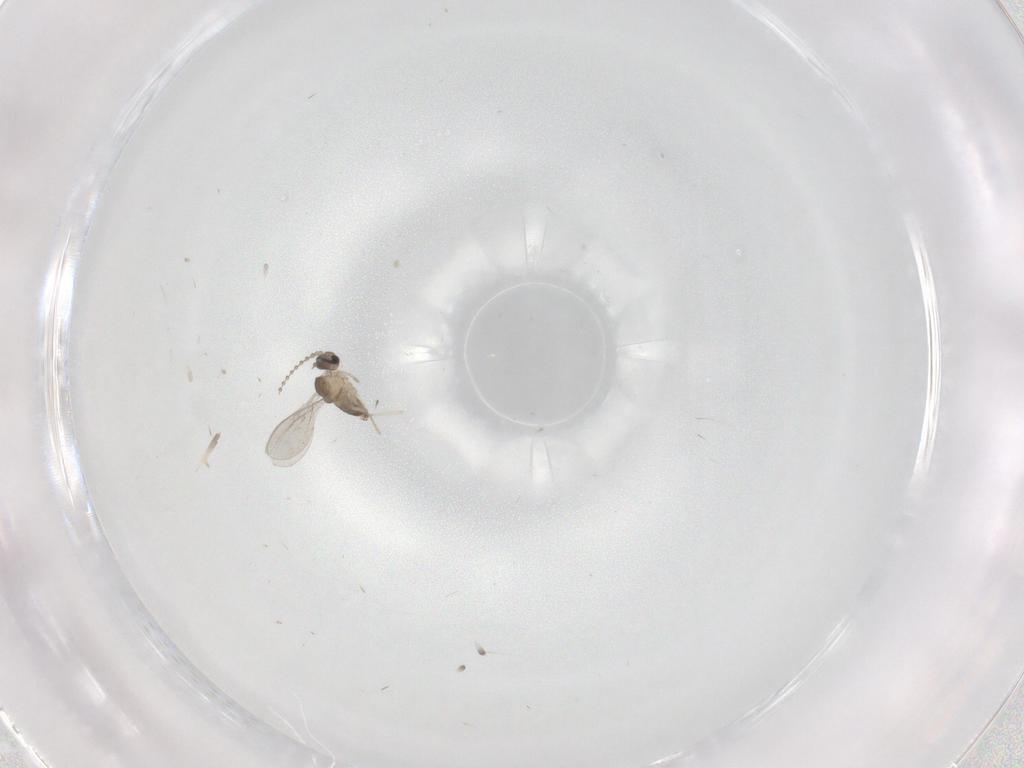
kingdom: Animalia
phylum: Arthropoda
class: Insecta
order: Diptera
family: Cecidomyiidae
